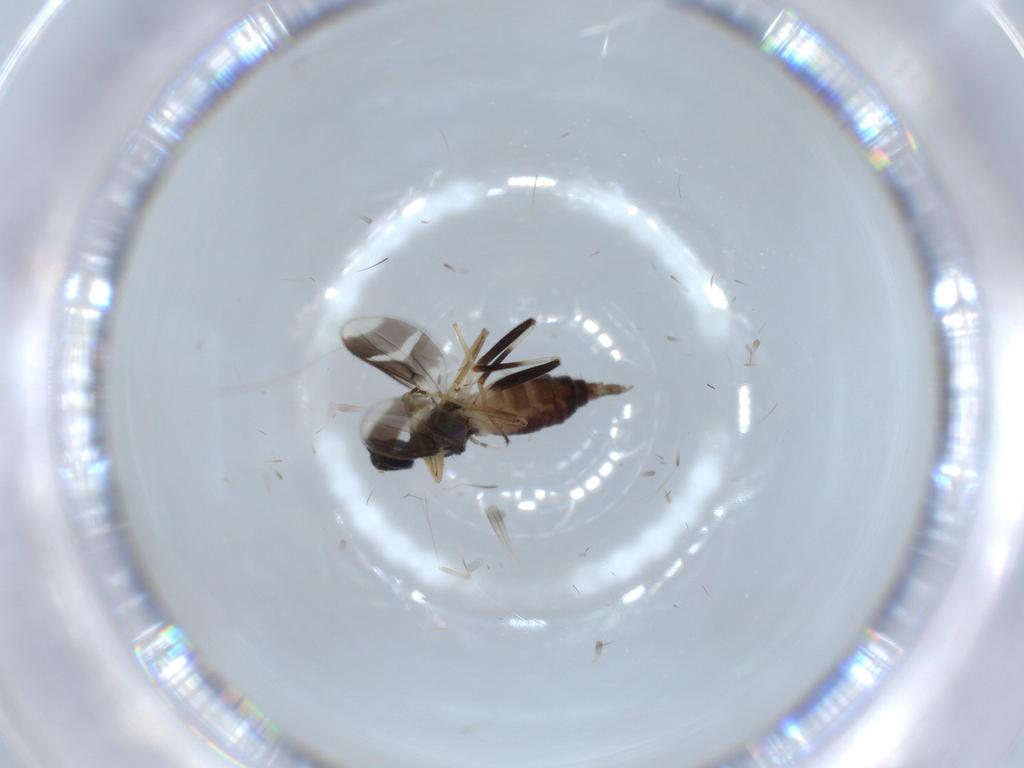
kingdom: Animalia
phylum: Arthropoda
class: Insecta
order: Diptera
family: Hybotidae
